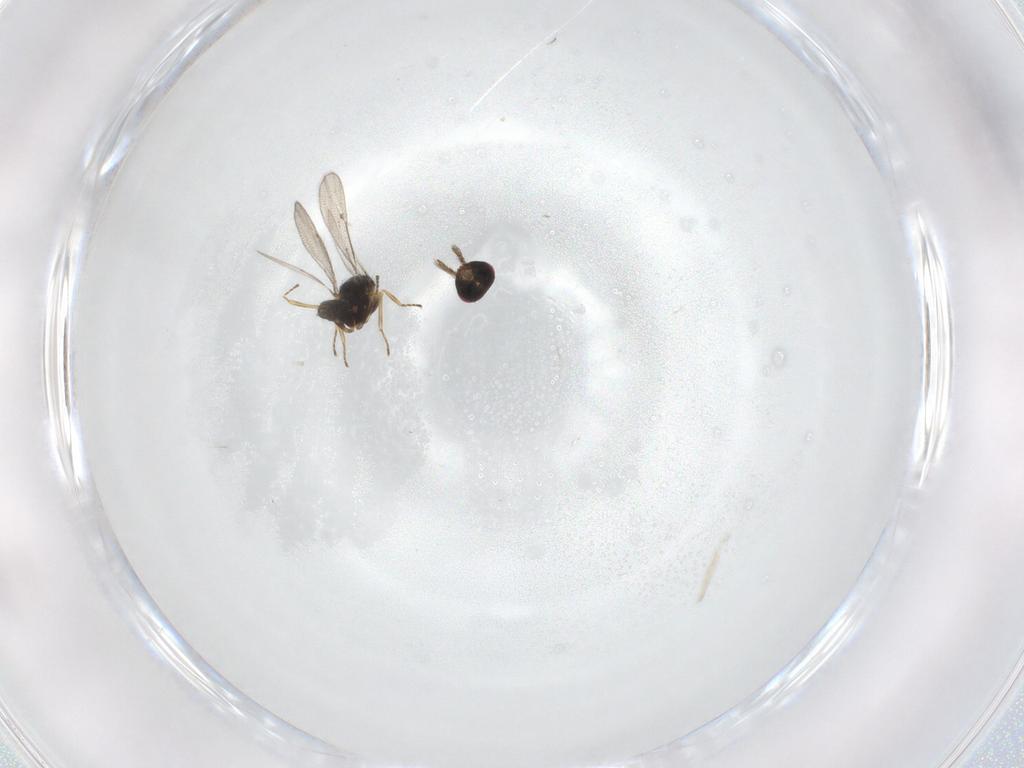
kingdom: Animalia
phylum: Arthropoda
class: Insecta
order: Hymenoptera
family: Eulophidae
